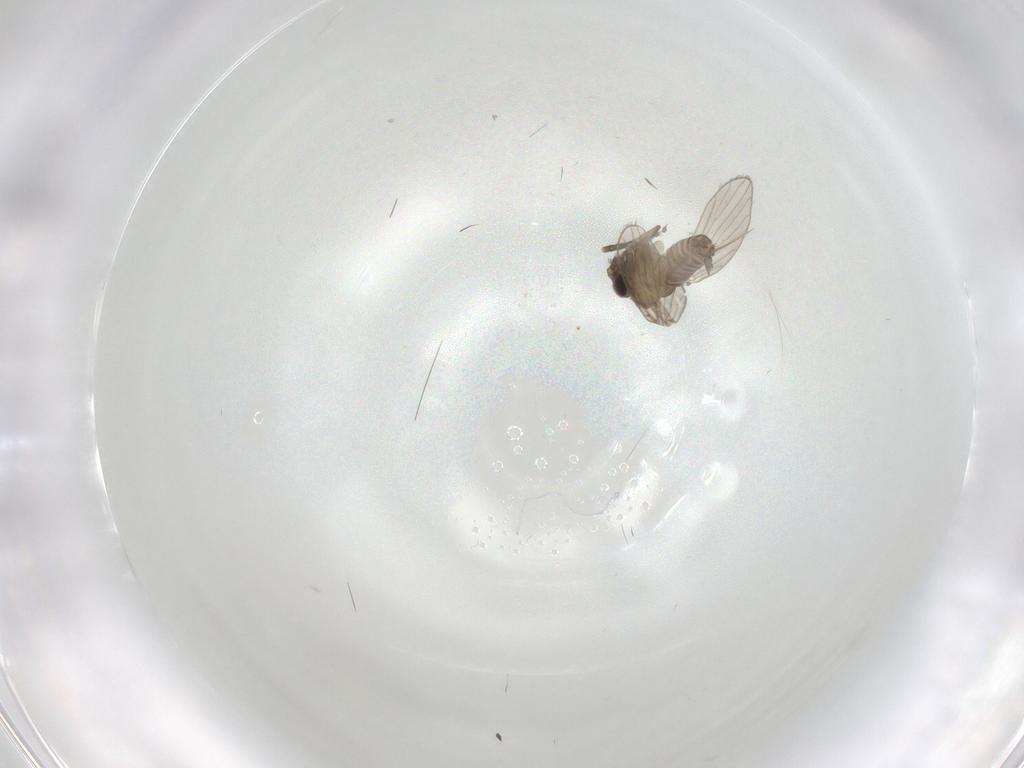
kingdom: Animalia
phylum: Arthropoda
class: Insecta
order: Diptera
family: Psychodidae
